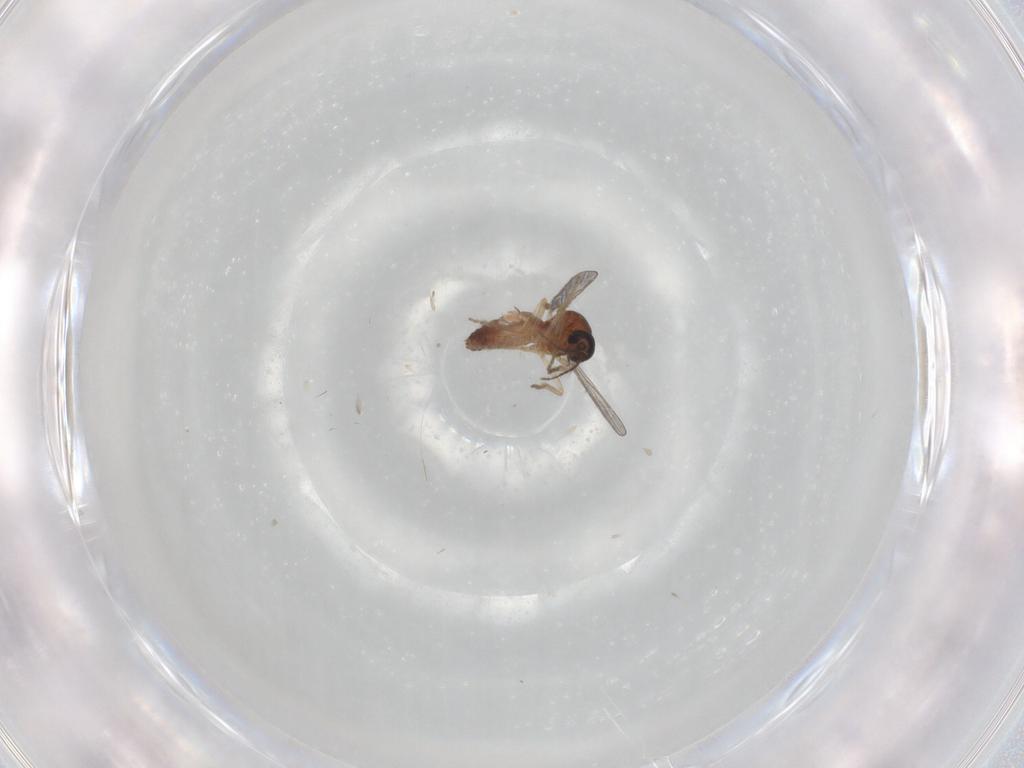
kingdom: Animalia
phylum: Arthropoda
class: Insecta
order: Diptera
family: Ceratopogonidae
